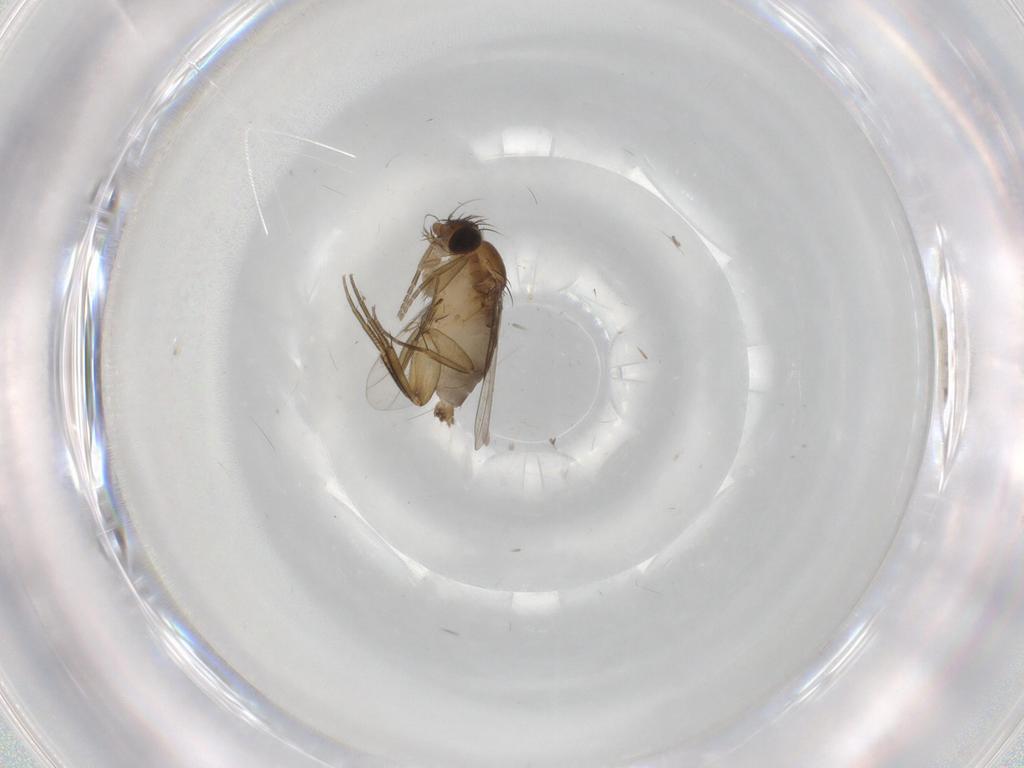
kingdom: Animalia
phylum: Arthropoda
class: Insecta
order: Diptera
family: Phoridae
